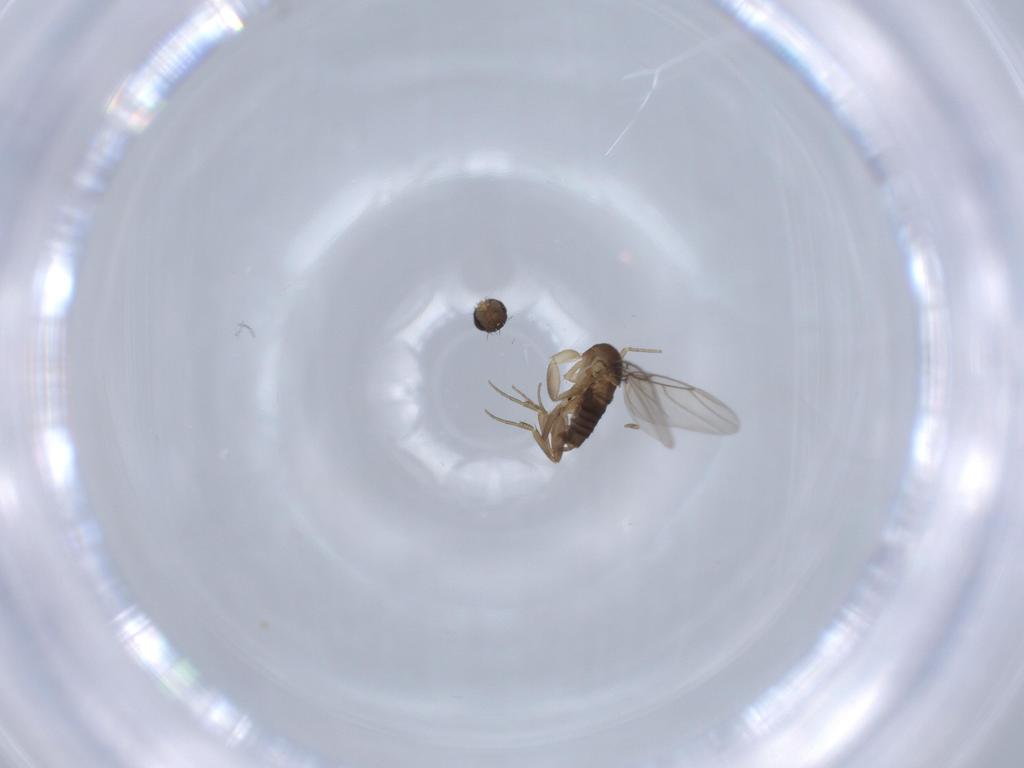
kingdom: Animalia
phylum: Arthropoda
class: Insecta
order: Diptera
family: Phoridae
